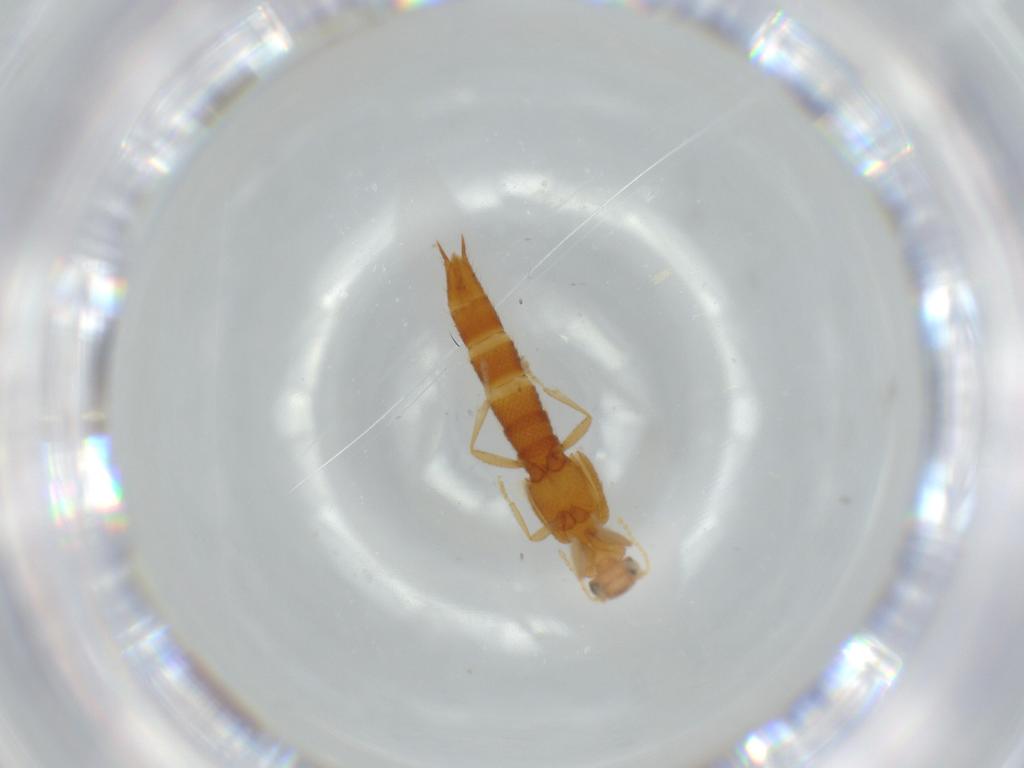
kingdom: Animalia
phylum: Arthropoda
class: Insecta
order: Coleoptera
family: Staphylinidae
